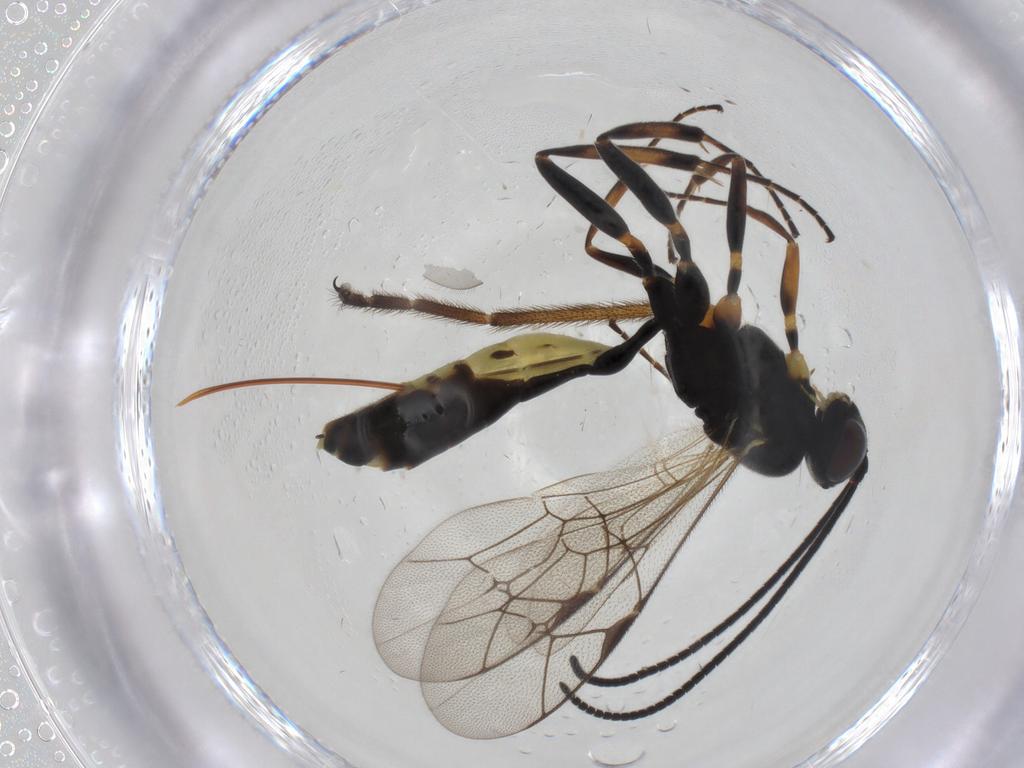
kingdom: Animalia
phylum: Arthropoda
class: Insecta
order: Hymenoptera
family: Ichneumonidae
